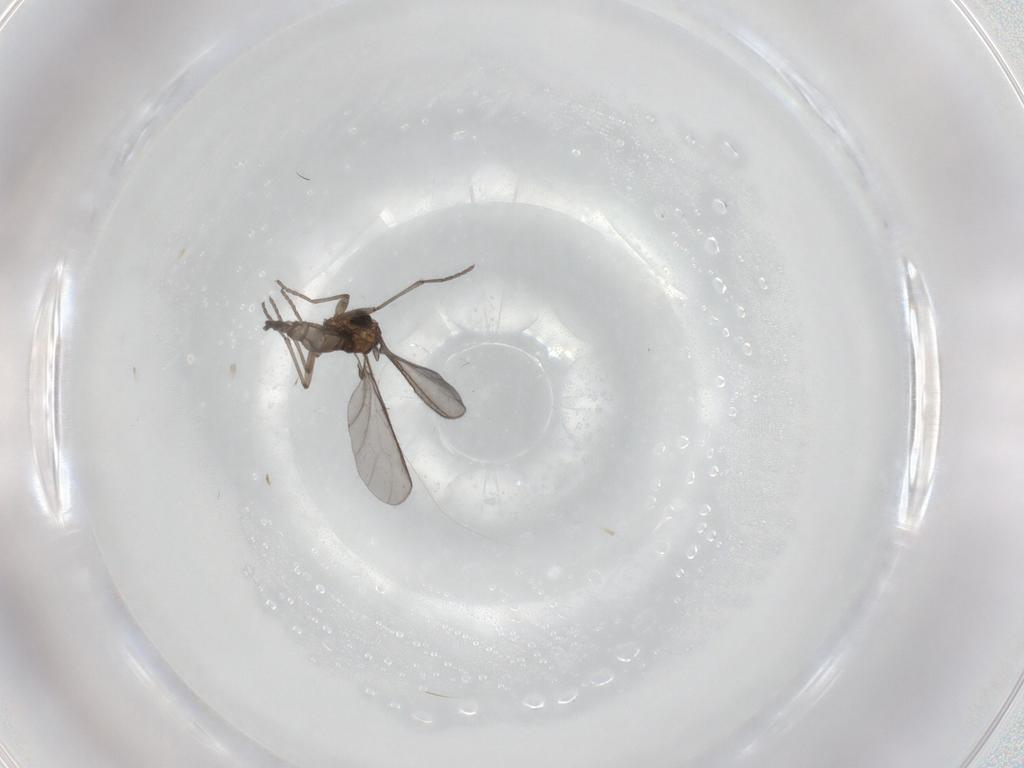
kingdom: Animalia
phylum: Arthropoda
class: Insecta
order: Diptera
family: Sciaridae
